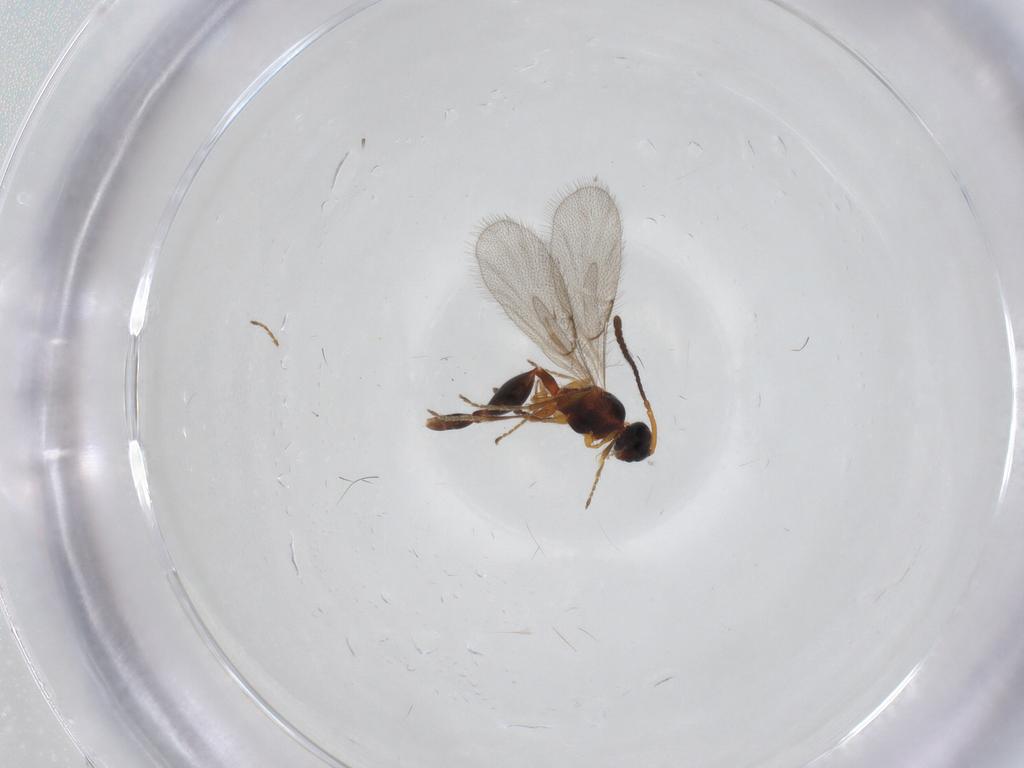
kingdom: Animalia
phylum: Arthropoda
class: Insecta
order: Hymenoptera
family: Diapriidae
